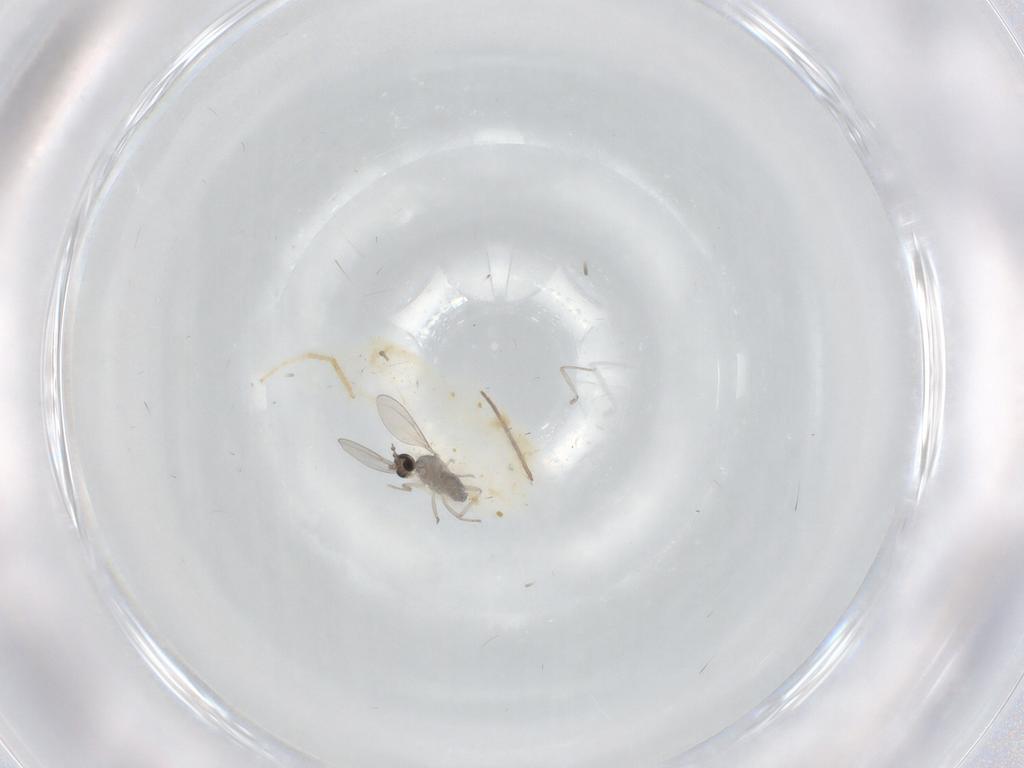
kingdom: Animalia
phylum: Arthropoda
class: Insecta
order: Diptera
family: Cecidomyiidae
